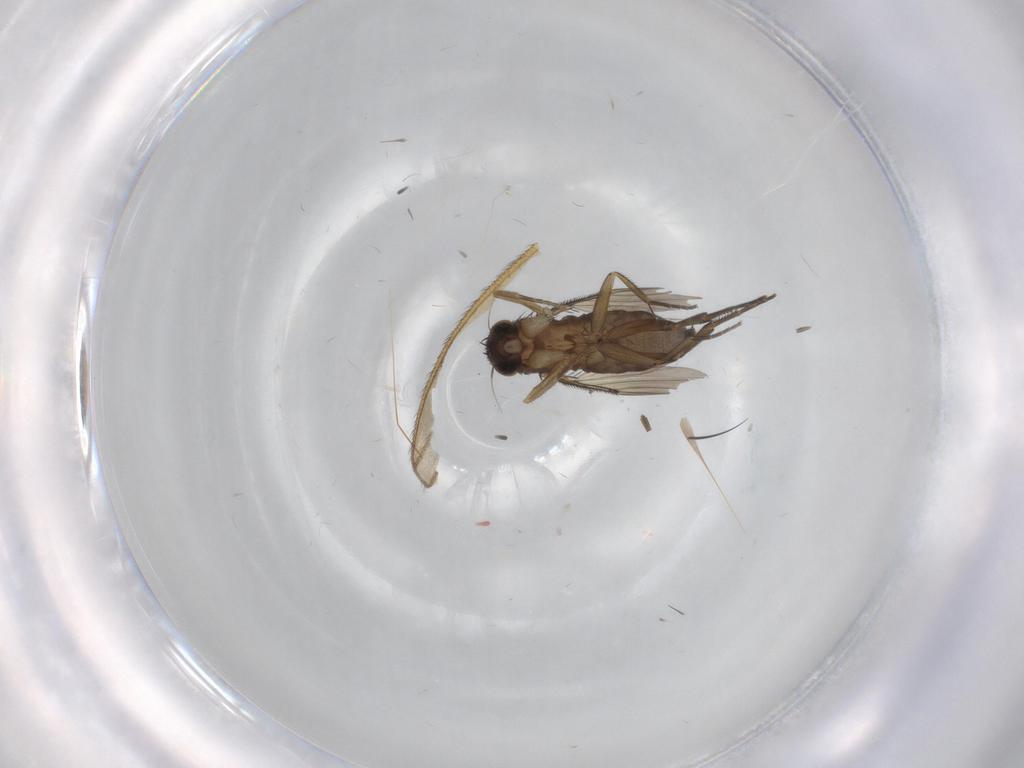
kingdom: Animalia
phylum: Arthropoda
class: Insecta
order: Diptera
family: Phoridae
